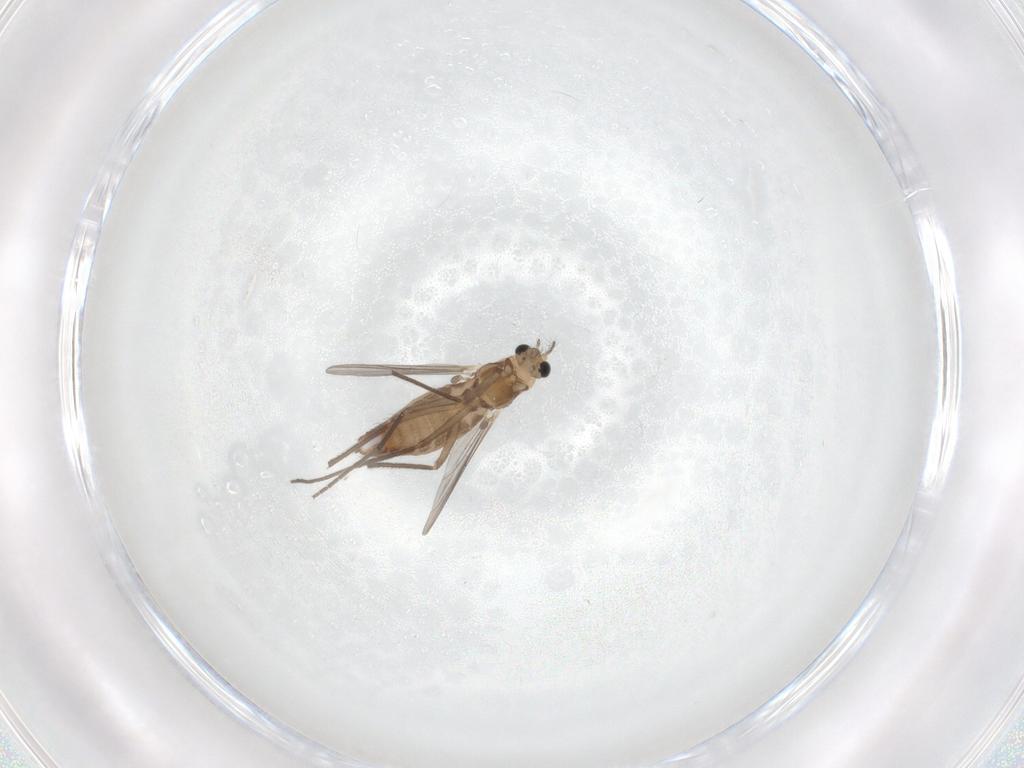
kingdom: Animalia
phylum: Arthropoda
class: Insecta
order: Diptera
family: Chironomidae
